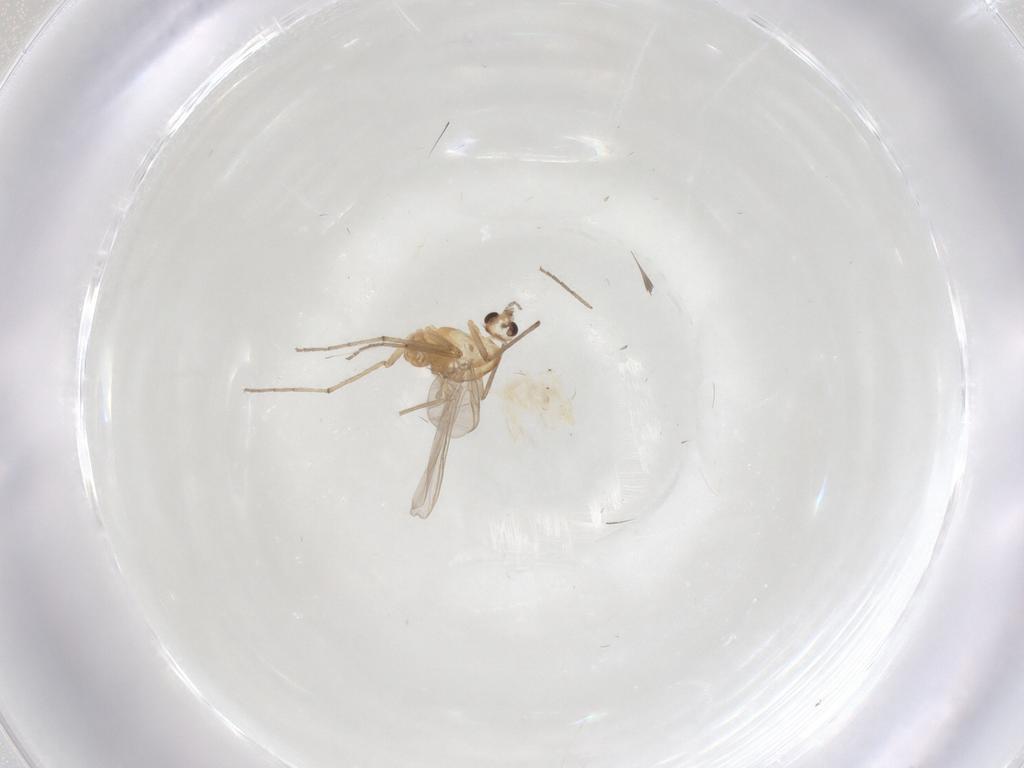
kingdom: Animalia
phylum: Arthropoda
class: Insecta
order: Diptera
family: Chironomidae
